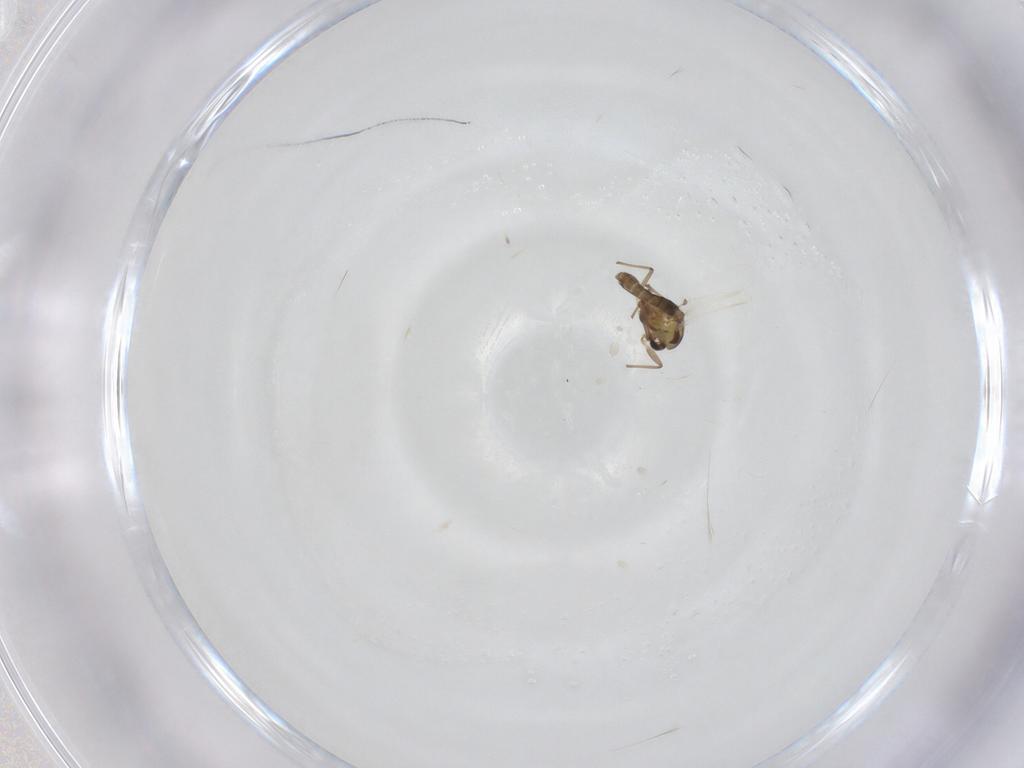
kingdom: Animalia
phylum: Arthropoda
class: Insecta
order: Diptera
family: Chironomidae
